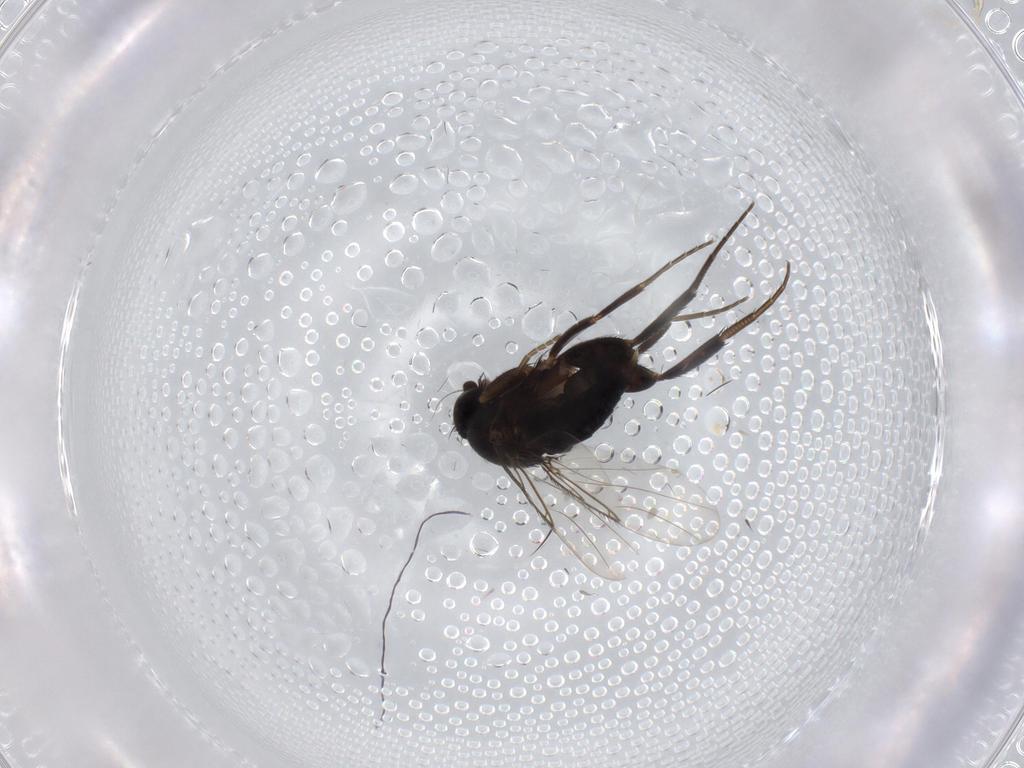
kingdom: Animalia
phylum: Arthropoda
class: Insecta
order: Diptera
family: Phoridae
